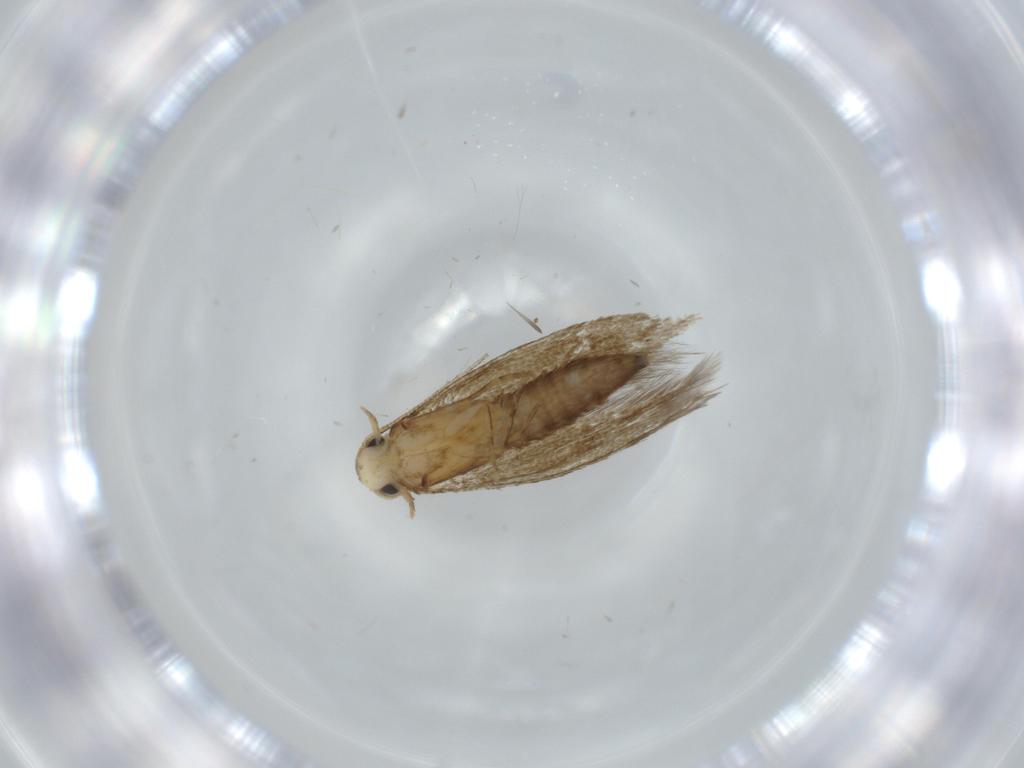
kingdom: Animalia
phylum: Arthropoda
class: Insecta
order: Lepidoptera
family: Tineidae
